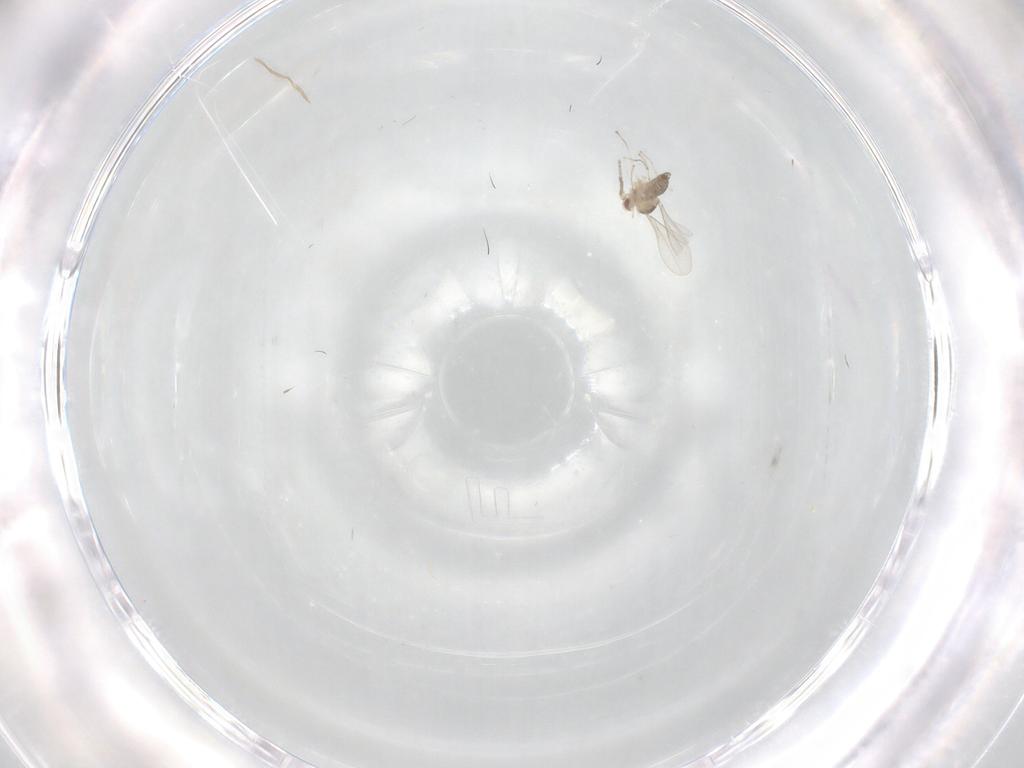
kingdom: Animalia
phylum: Arthropoda
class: Insecta
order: Diptera
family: Cecidomyiidae
